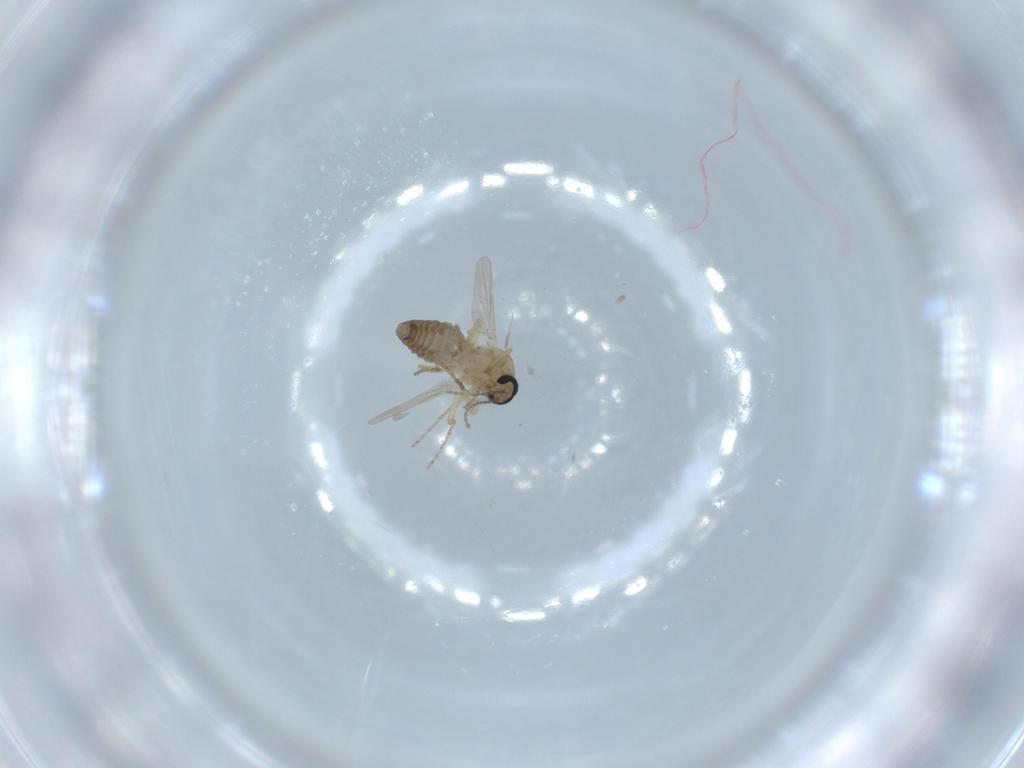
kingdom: Animalia
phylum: Arthropoda
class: Insecta
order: Diptera
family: Ceratopogonidae
